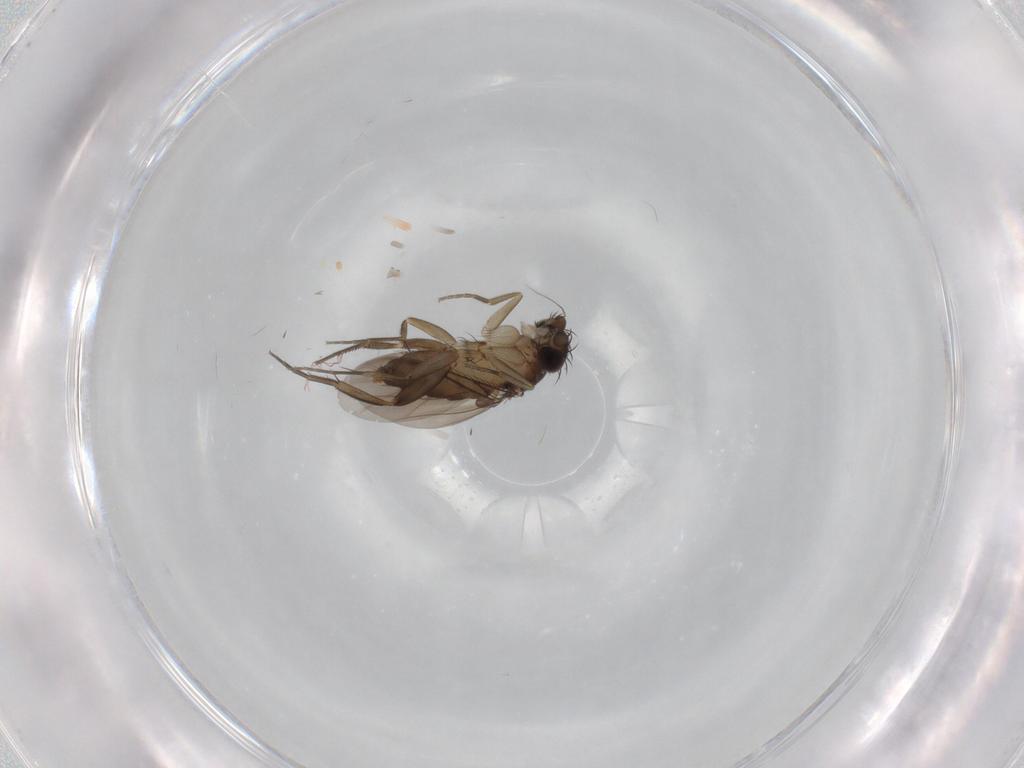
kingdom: Animalia
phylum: Arthropoda
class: Insecta
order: Diptera
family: Phoridae
